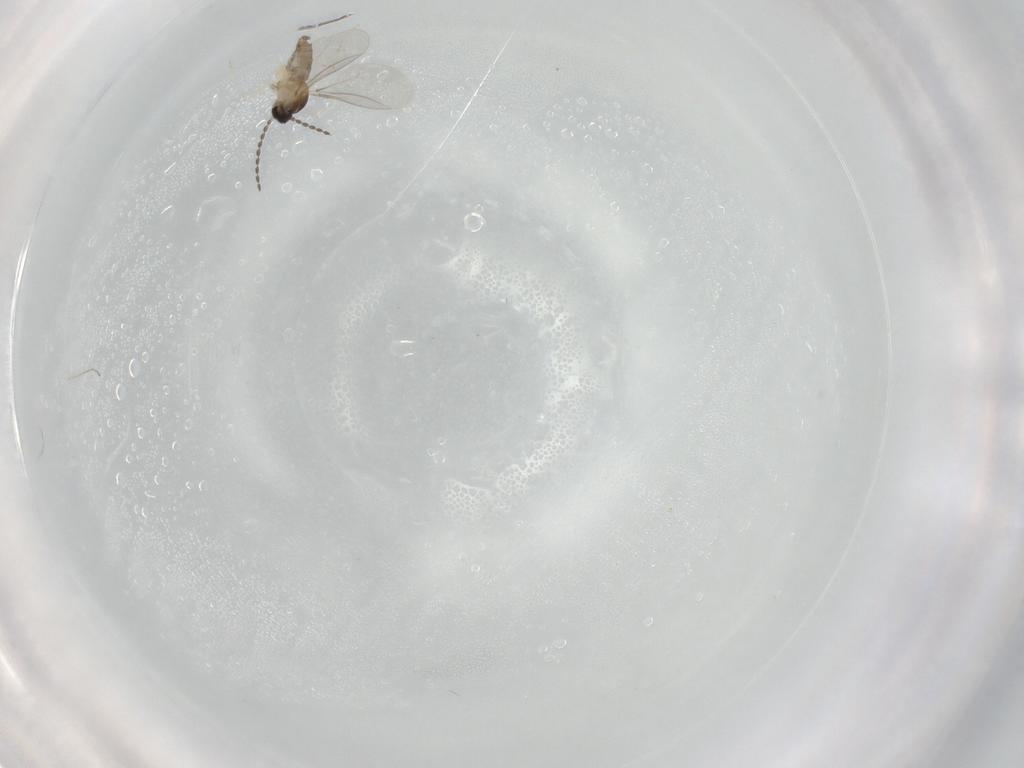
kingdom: Animalia
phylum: Arthropoda
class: Insecta
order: Diptera
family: Cecidomyiidae
